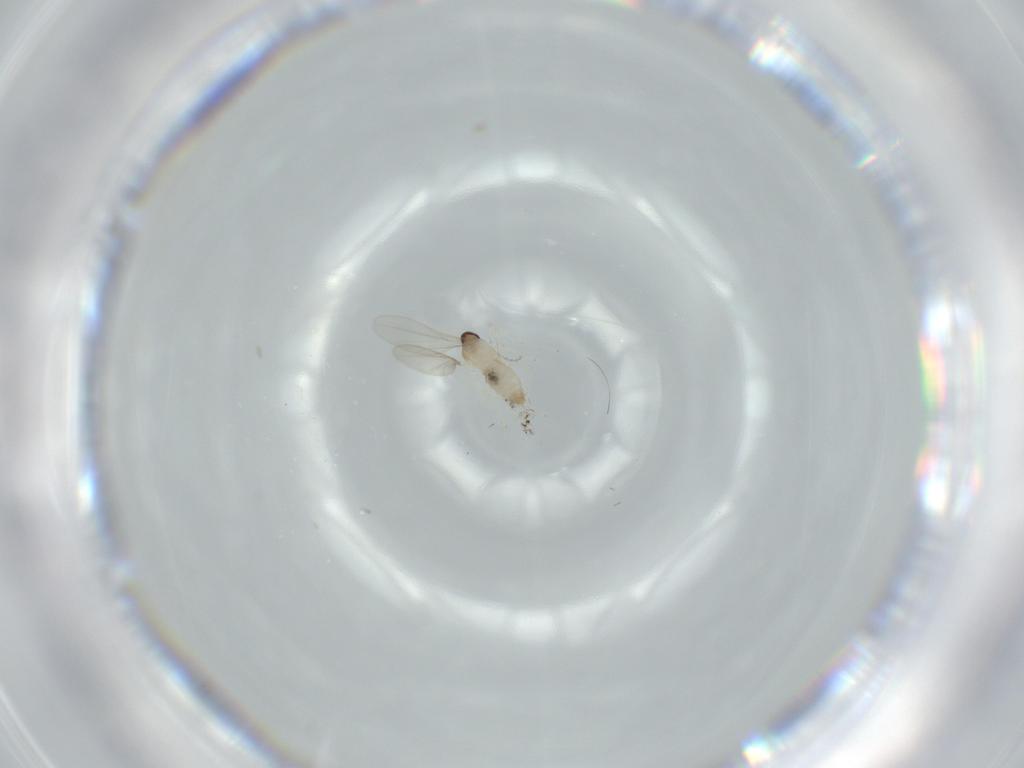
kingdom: Animalia
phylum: Arthropoda
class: Insecta
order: Diptera
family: Cecidomyiidae
